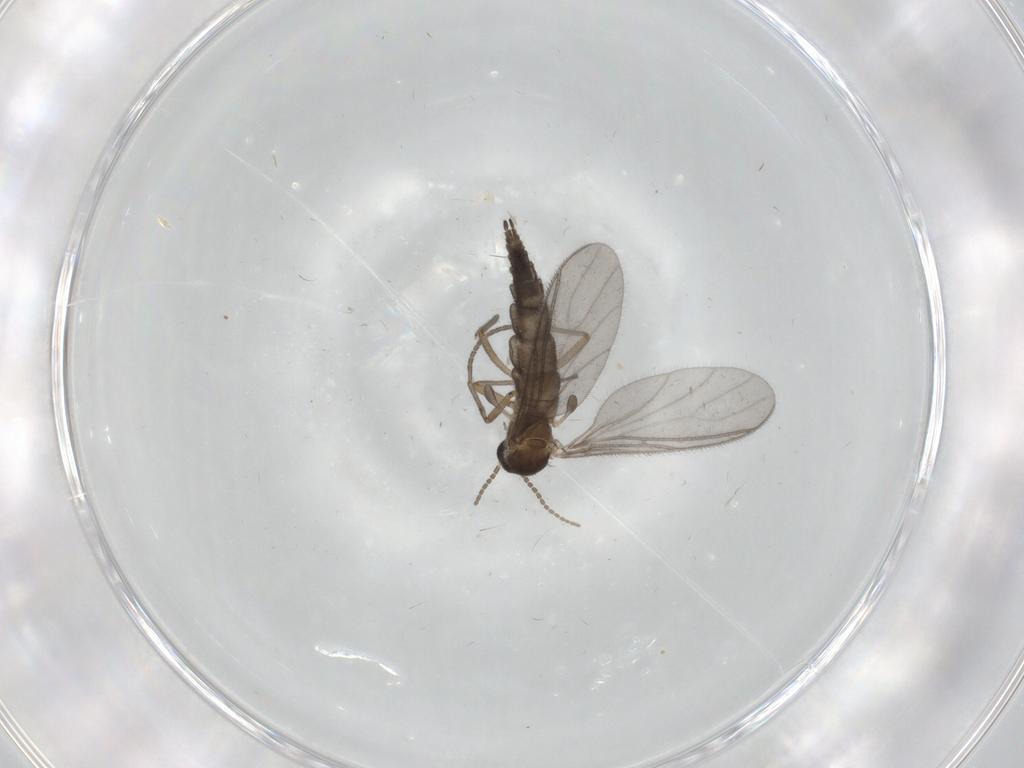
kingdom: Animalia
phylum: Arthropoda
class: Insecta
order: Diptera
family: Sciaridae
